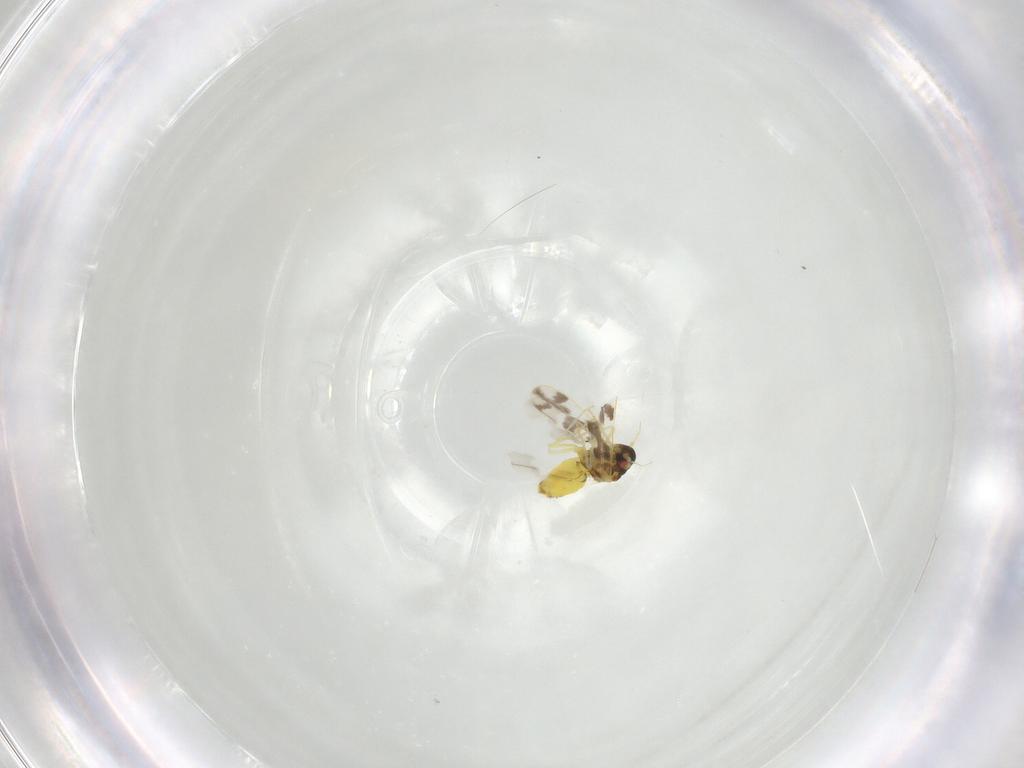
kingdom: Animalia
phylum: Arthropoda
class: Insecta
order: Hemiptera
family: Aleyrodidae
